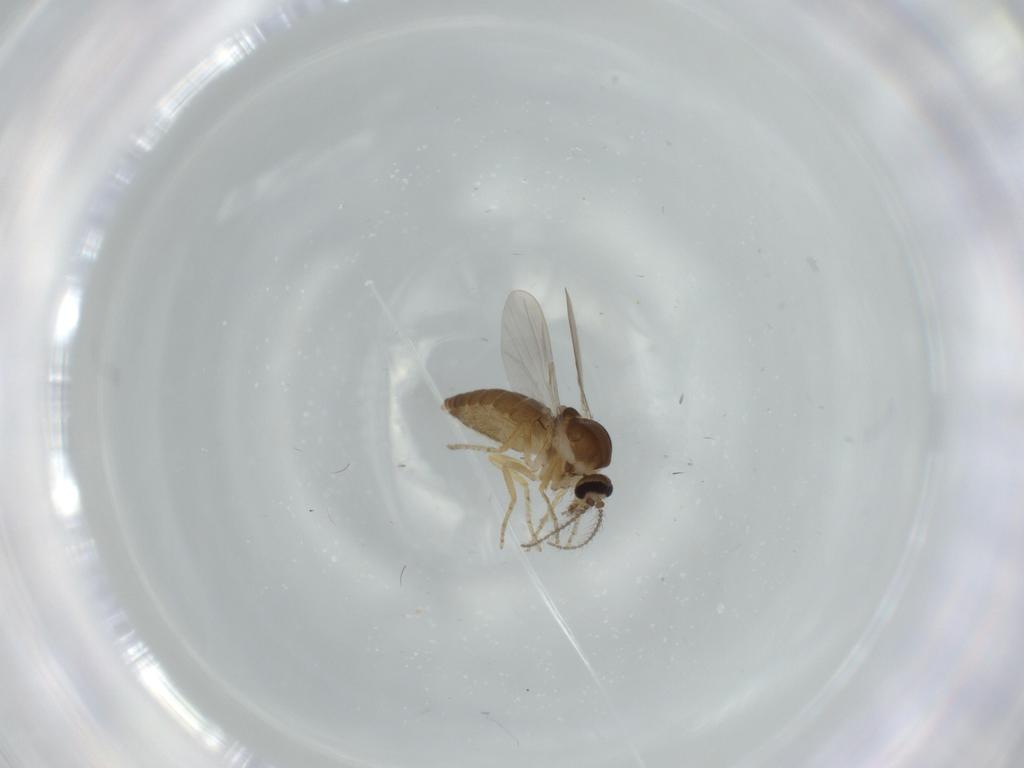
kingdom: Animalia
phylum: Arthropoda
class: Insecta
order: Diptera
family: Ceratopogonidae
